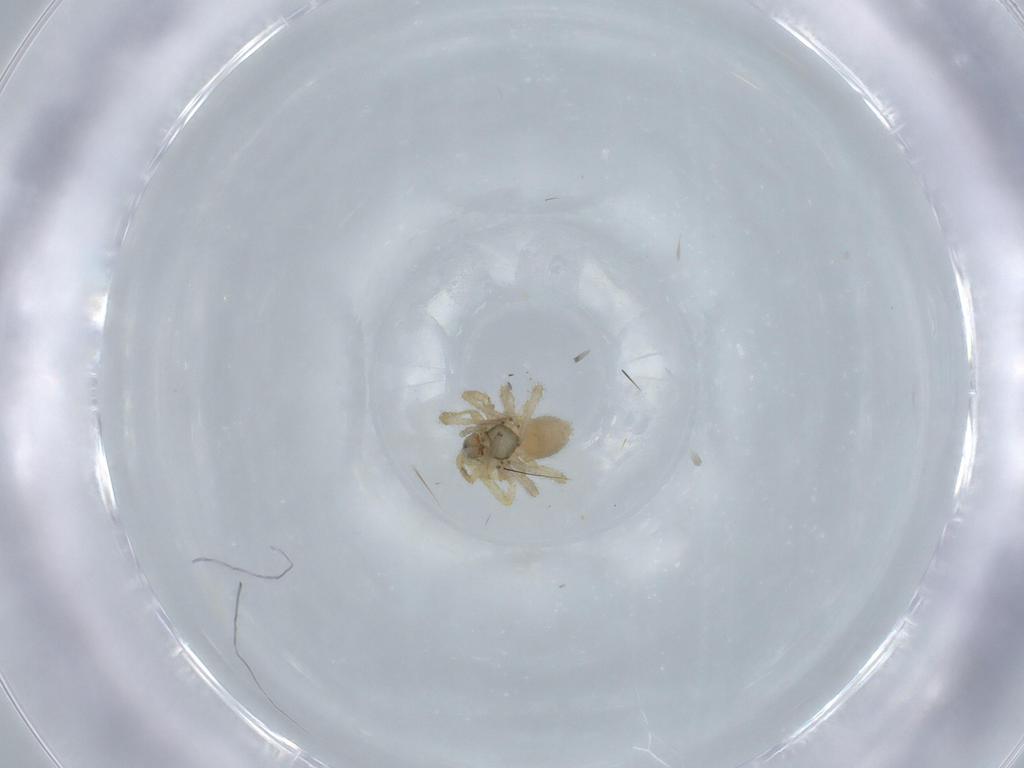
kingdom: Animalia
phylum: Arthropoda
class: Arachnida
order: Araneae
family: Linyphiidae
